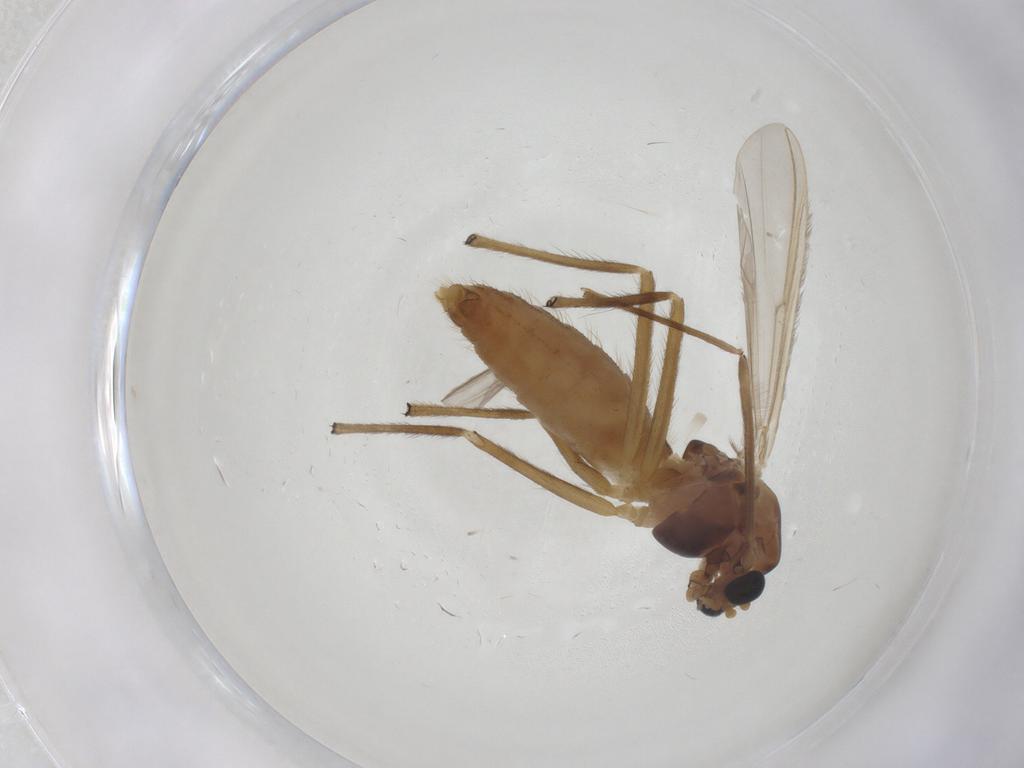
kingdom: Animalia
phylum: Arthropoda
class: Insecta
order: Diptera
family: Chironomidae
